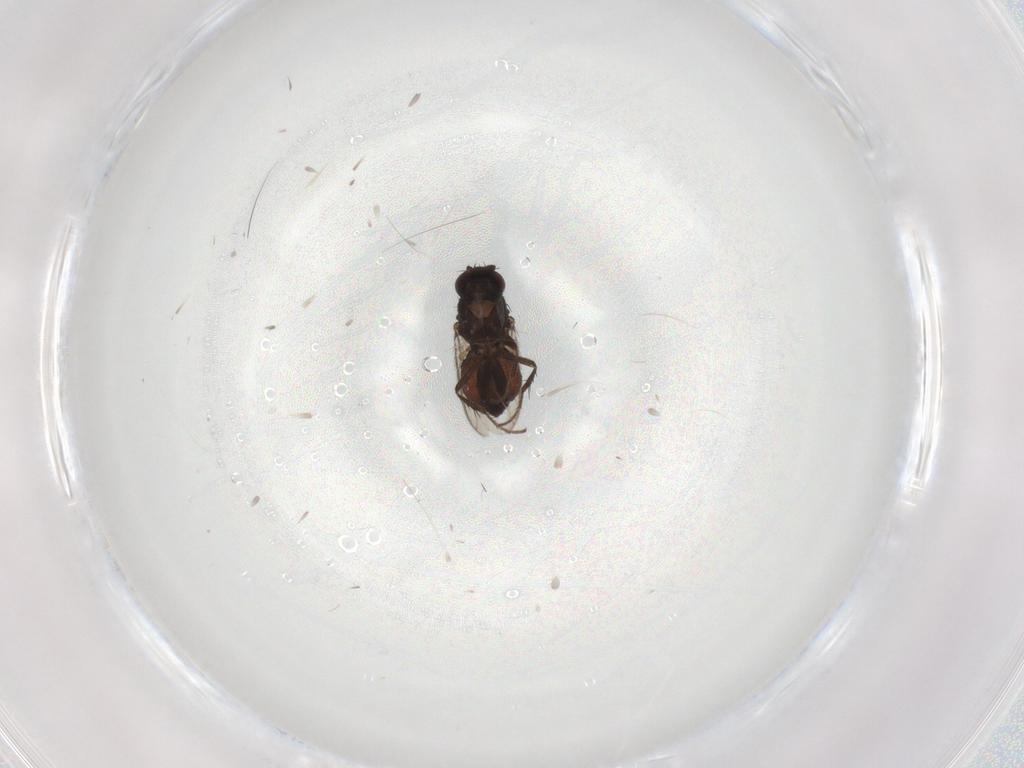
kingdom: Animalia
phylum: Arthropoda
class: Insecta
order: Diptera
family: Sphaeroceridae
